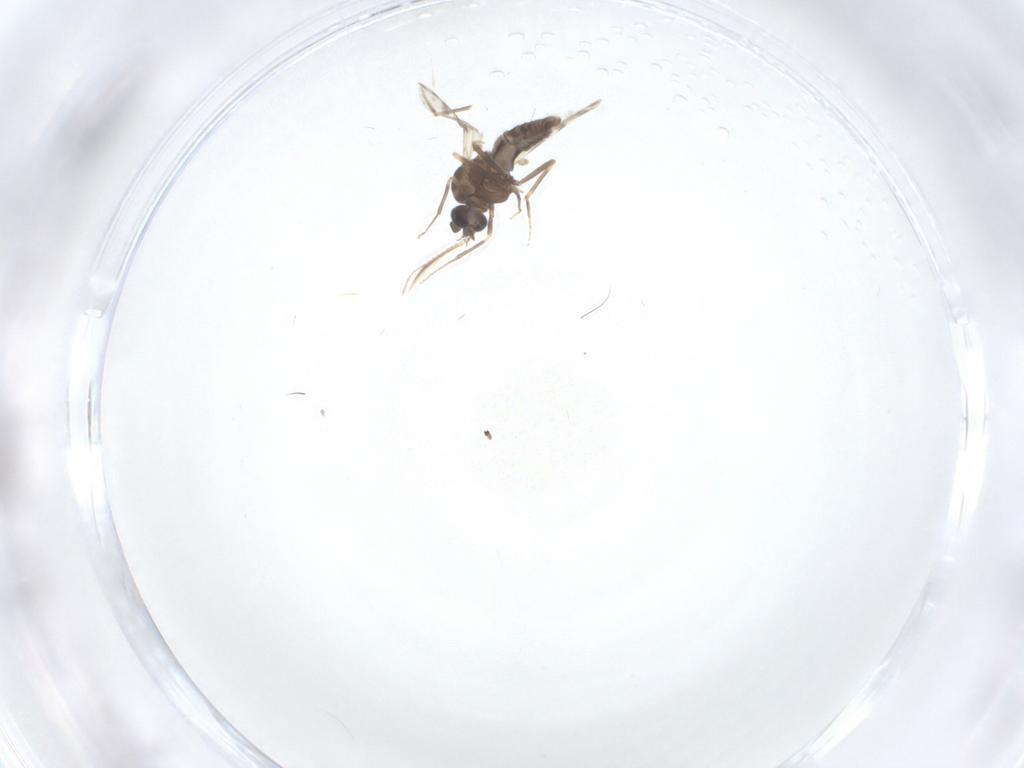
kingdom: Animalia
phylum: Arthropoda
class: Insecta
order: Diptera
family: Ceratopogonidae
